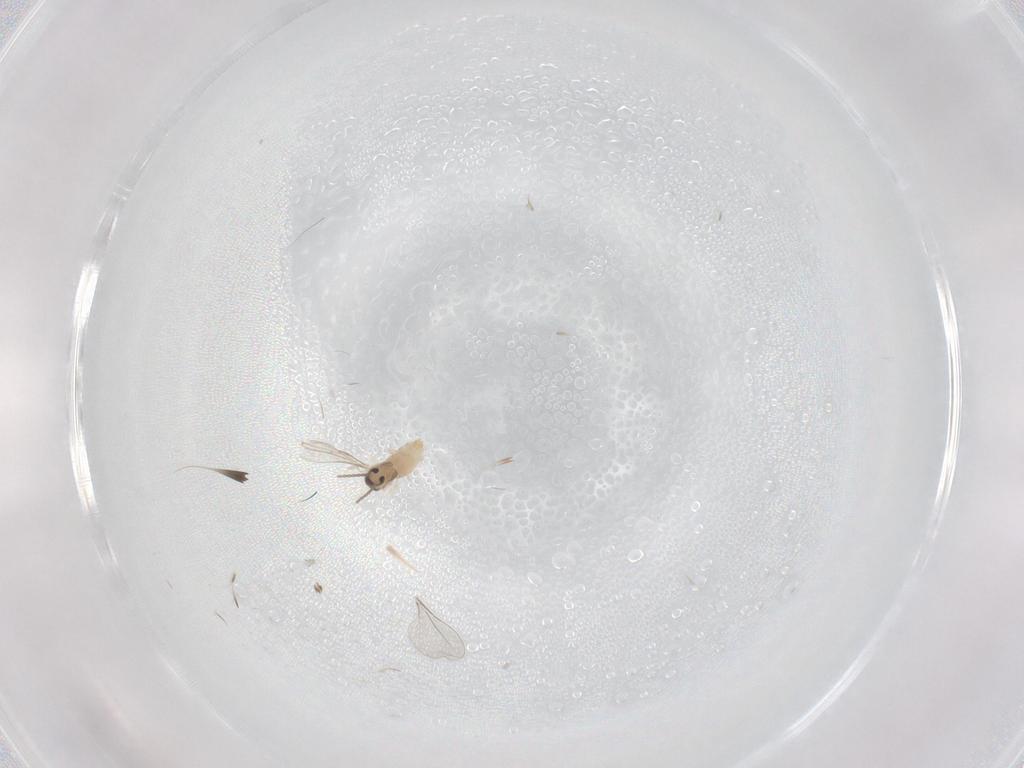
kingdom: Animalia
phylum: Arthropoda
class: Insecta
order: Diptera
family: Cecidomyiidae
